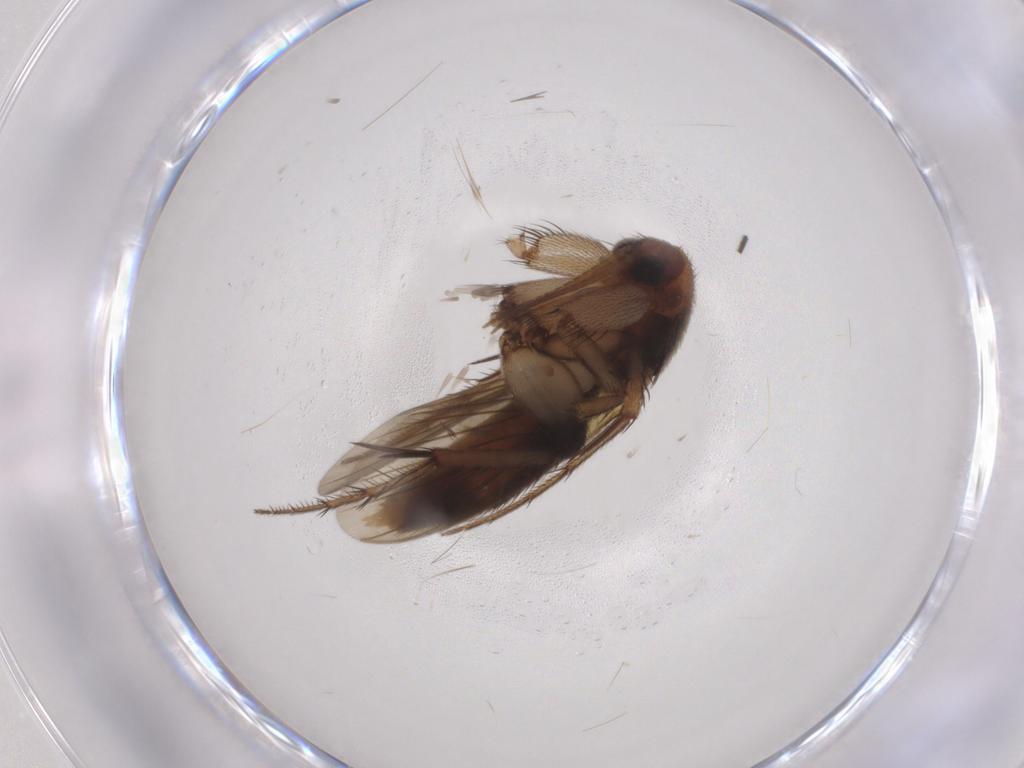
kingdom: Animalia
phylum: Arthropoda
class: Insecta
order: Diptera
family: Mycetophilidae
